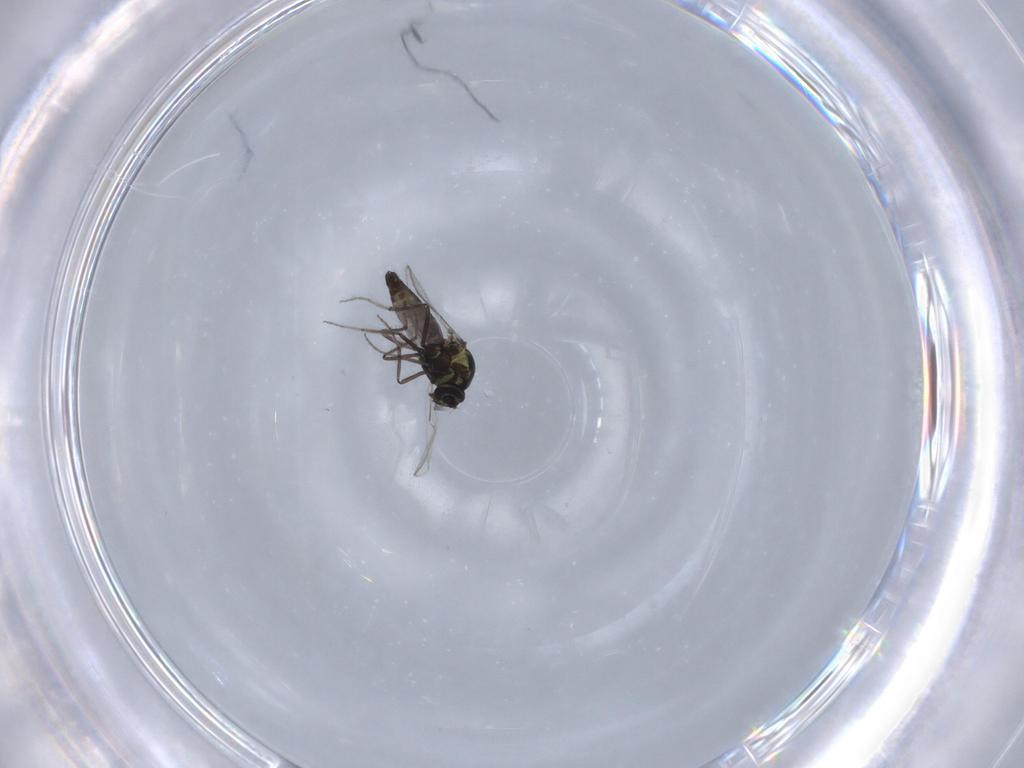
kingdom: Animalia
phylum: Arthropoda
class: Insecta
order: Diptera
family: Ceratopogonidae
